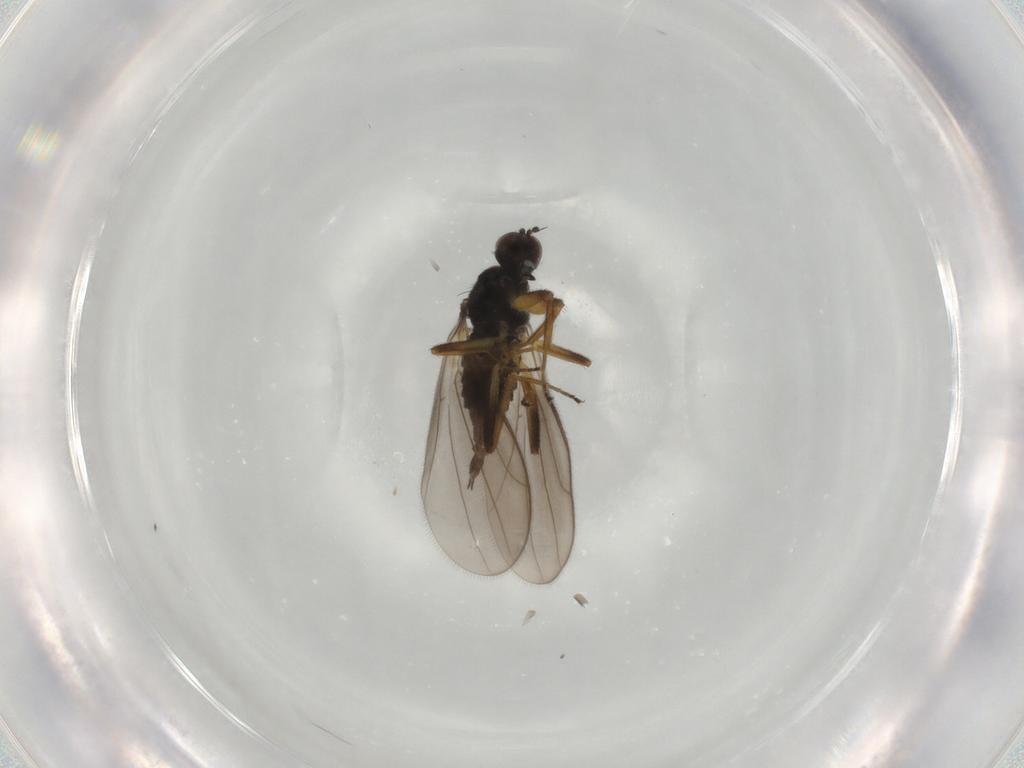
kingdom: Animalia
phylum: Arthropoda
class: Insecta
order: Diptera
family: Hybotidae
